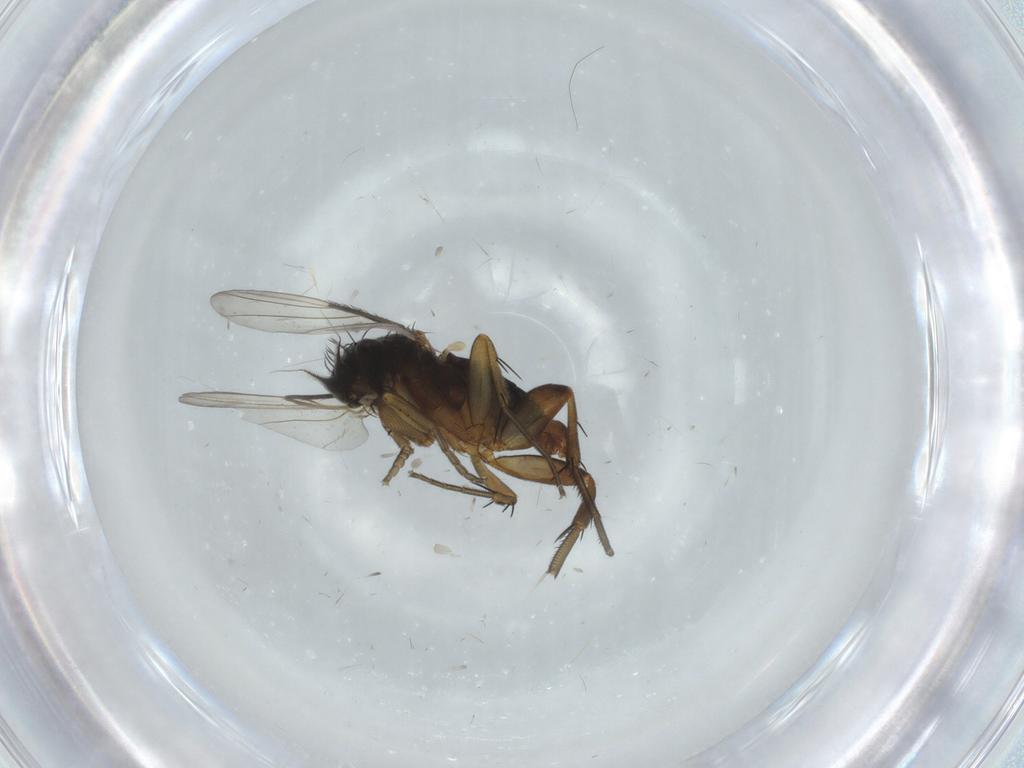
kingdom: Animalia
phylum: Arthropoda
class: Insecta
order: Diptera
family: Phoridae
